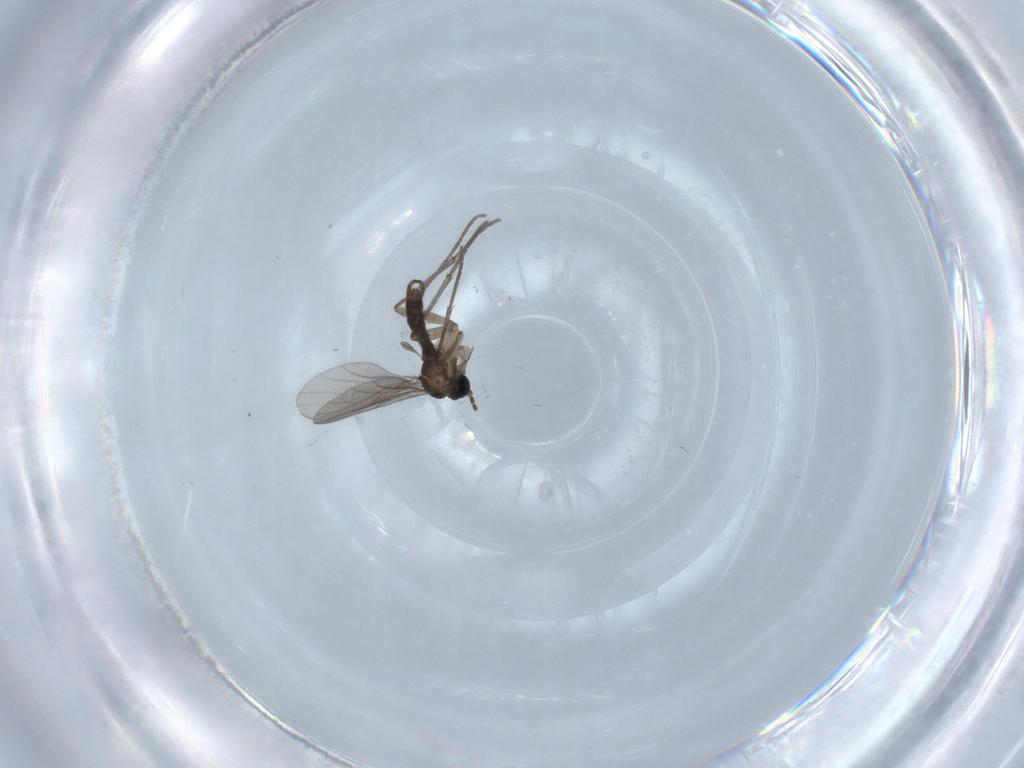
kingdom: Animalia
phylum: Arthropoda
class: Insecta
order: Diptera
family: Sciaridae
